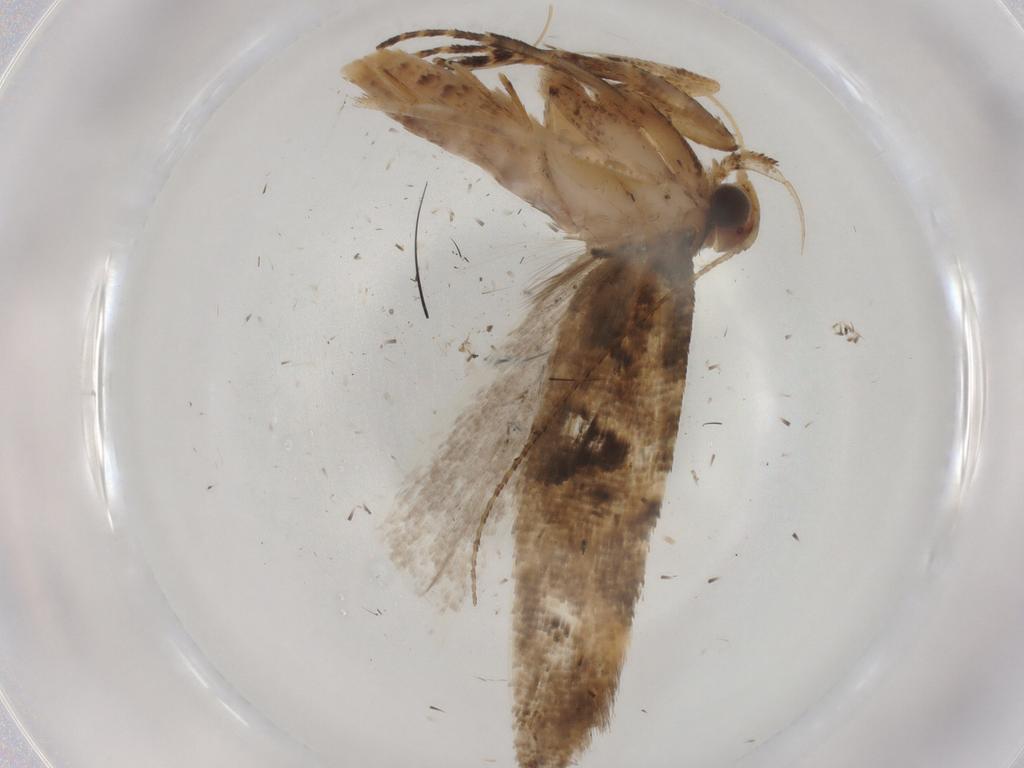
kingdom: Animalia
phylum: Arthropoda
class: Insecta
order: Lepidoptera
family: Gelechiidae
